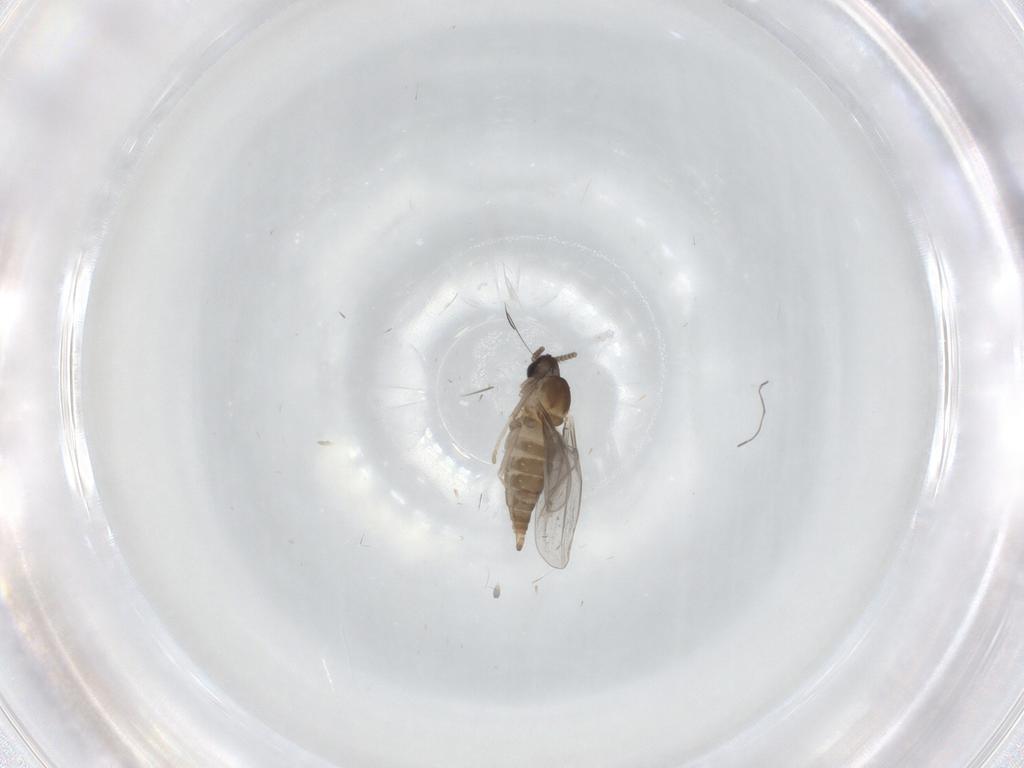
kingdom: Animalia
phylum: Arthropoda
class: Insecta
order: Diptera
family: Cecidomyiidae
